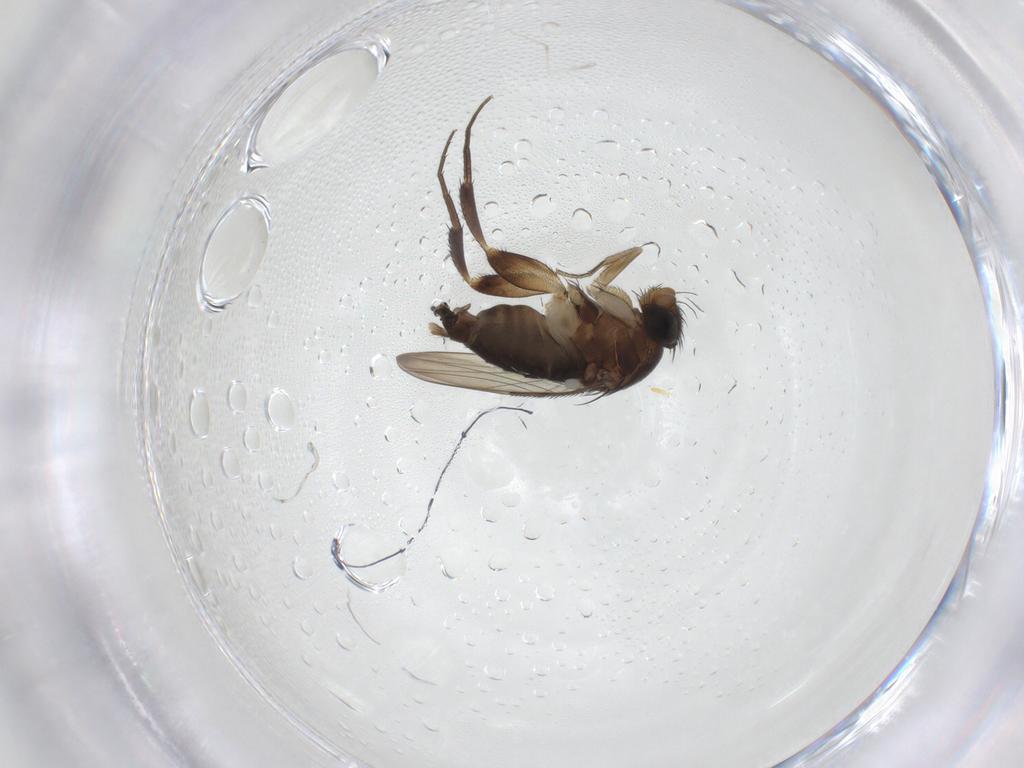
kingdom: Animalia
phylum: Arthropoda
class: Insecta
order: Diptera
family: Phoridae
